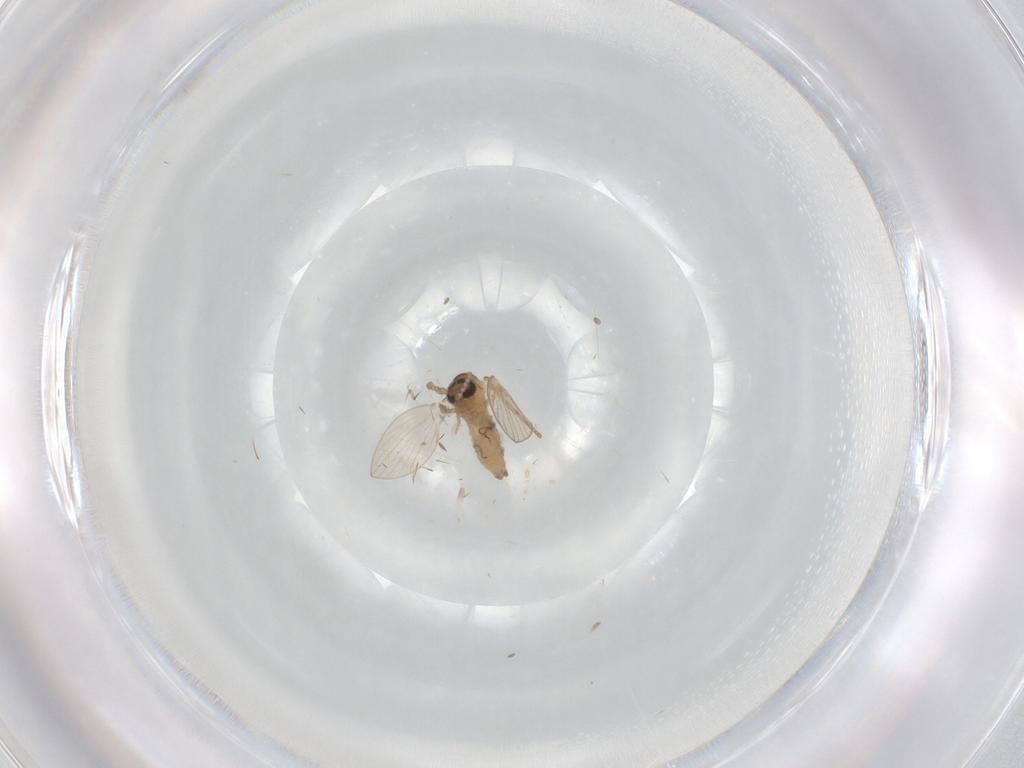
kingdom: Animalia
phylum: Arthropoda
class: Insecta
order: Diptera
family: Psychodidae
